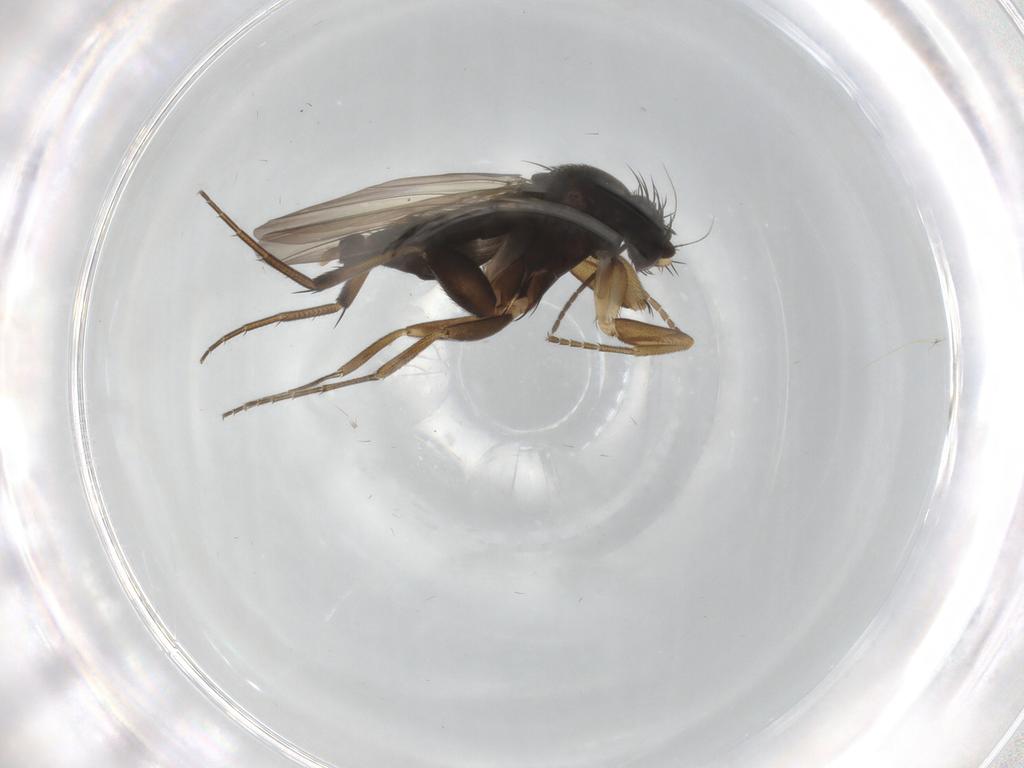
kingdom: Animalia
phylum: Arthropoda
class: Insecta
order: Diptera
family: Phoridae
